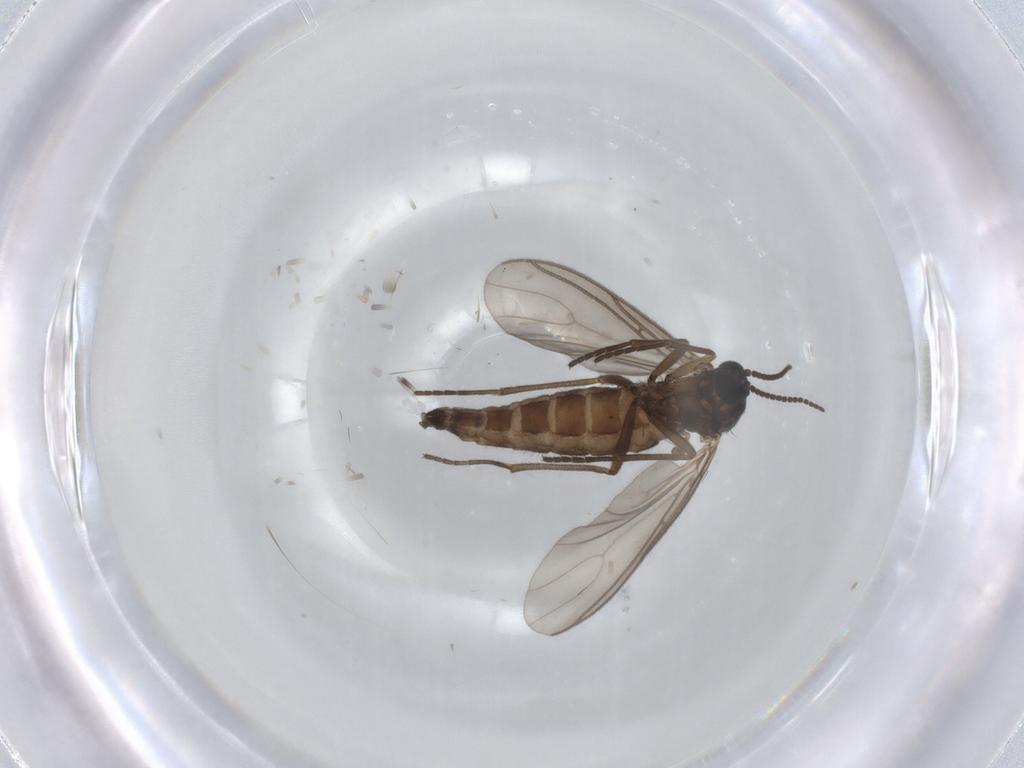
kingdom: Animalia
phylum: Arthropoda
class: Insecta
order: Diptera
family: Sciaridae
